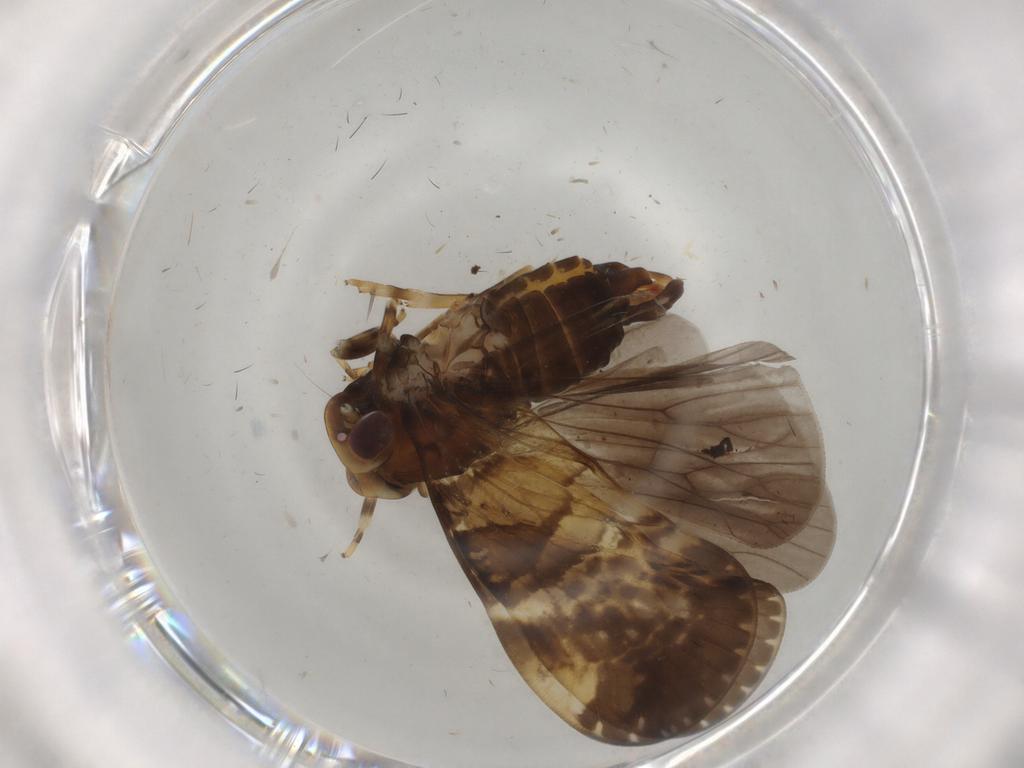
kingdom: Animalia
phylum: Arthropoda
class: Insecta
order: Hemiptera
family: Cixiidae
